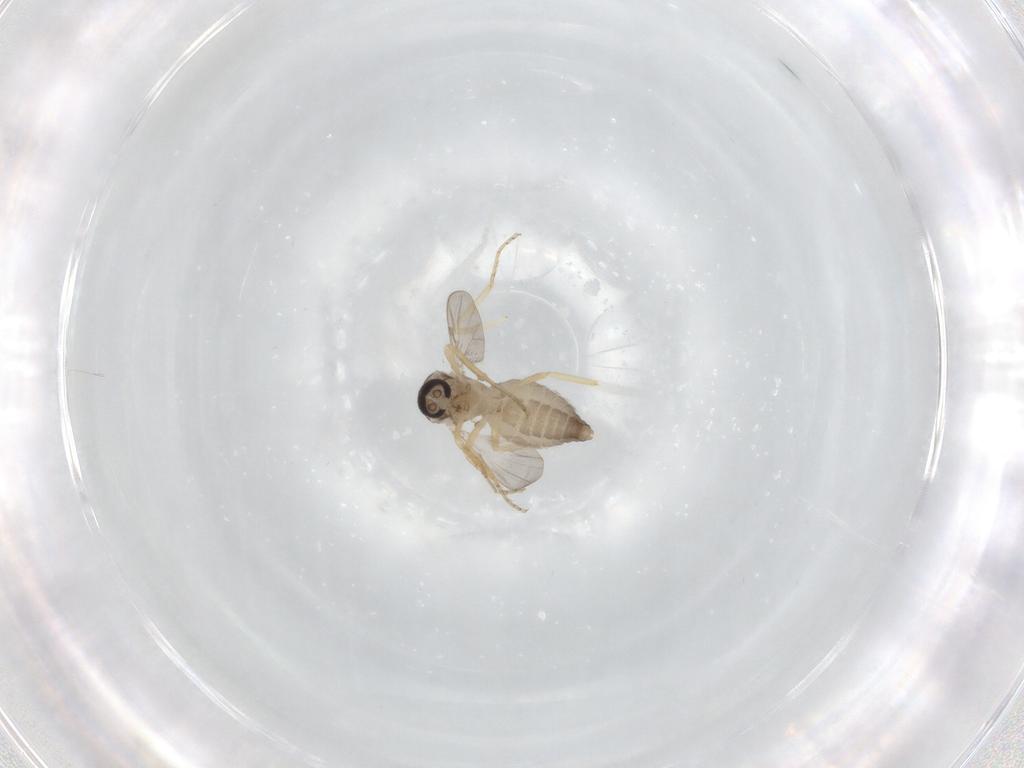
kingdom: Animalia
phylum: Arthropoda
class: Insecta
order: Diptera
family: Ceratopogonidae
